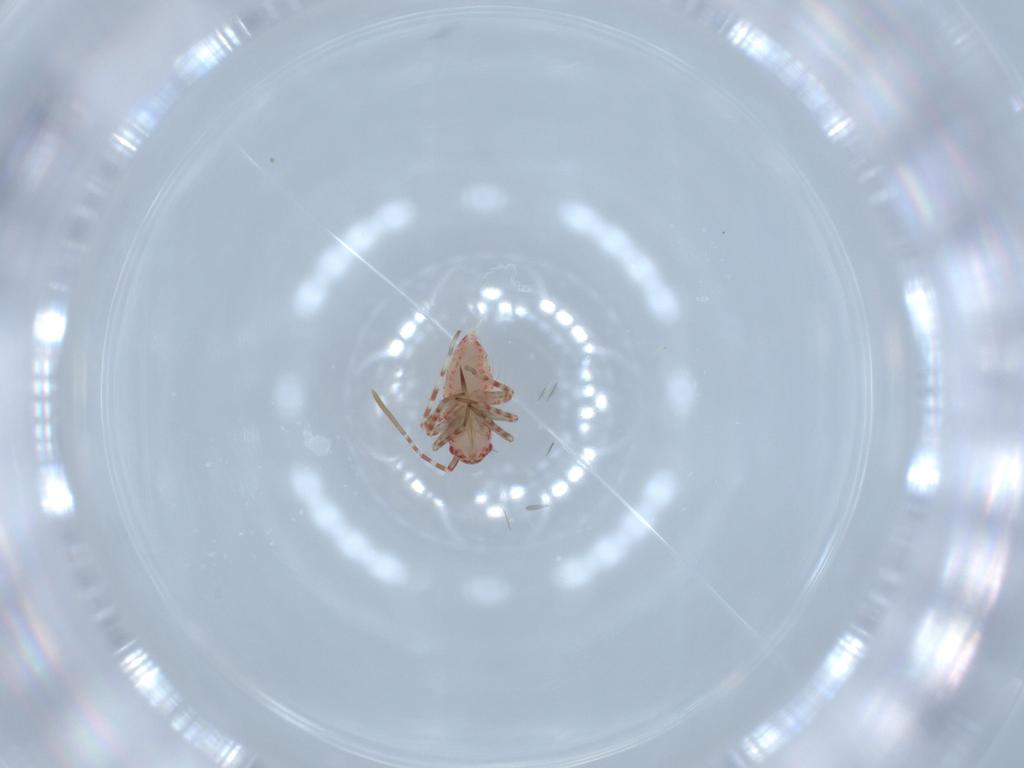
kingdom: Animalia
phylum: Arthropoda
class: Insecta
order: Hemiptera
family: Miridae
